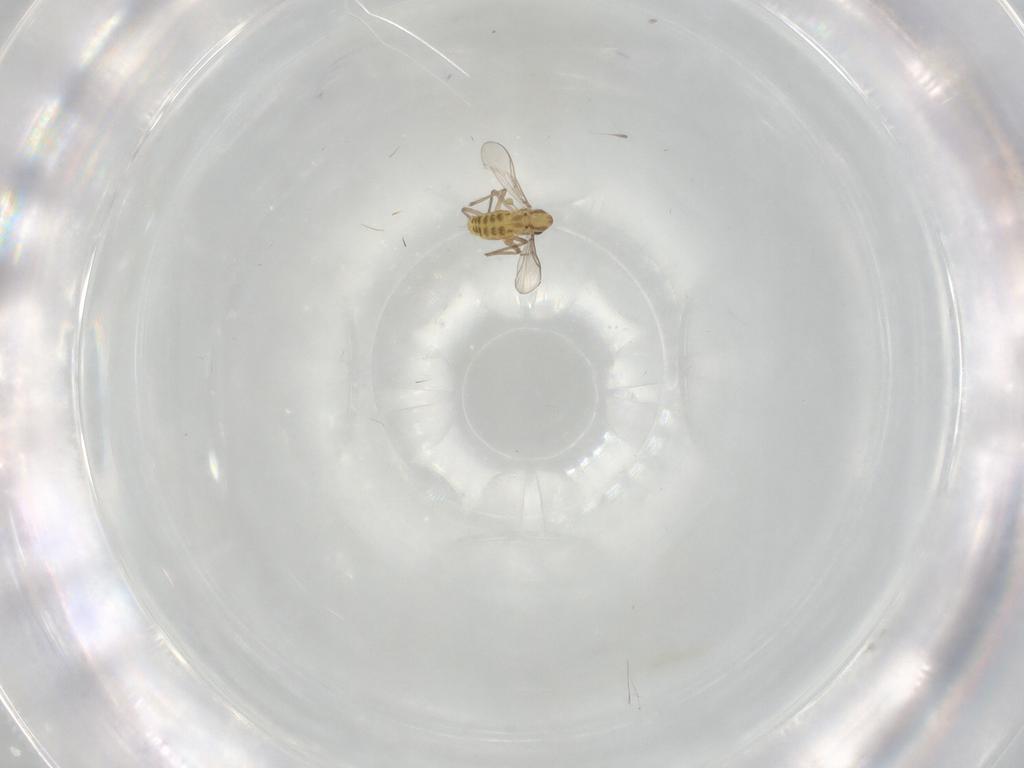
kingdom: Animalia
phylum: Arthropoda
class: Insecta
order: Diptera
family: Chironomidae
